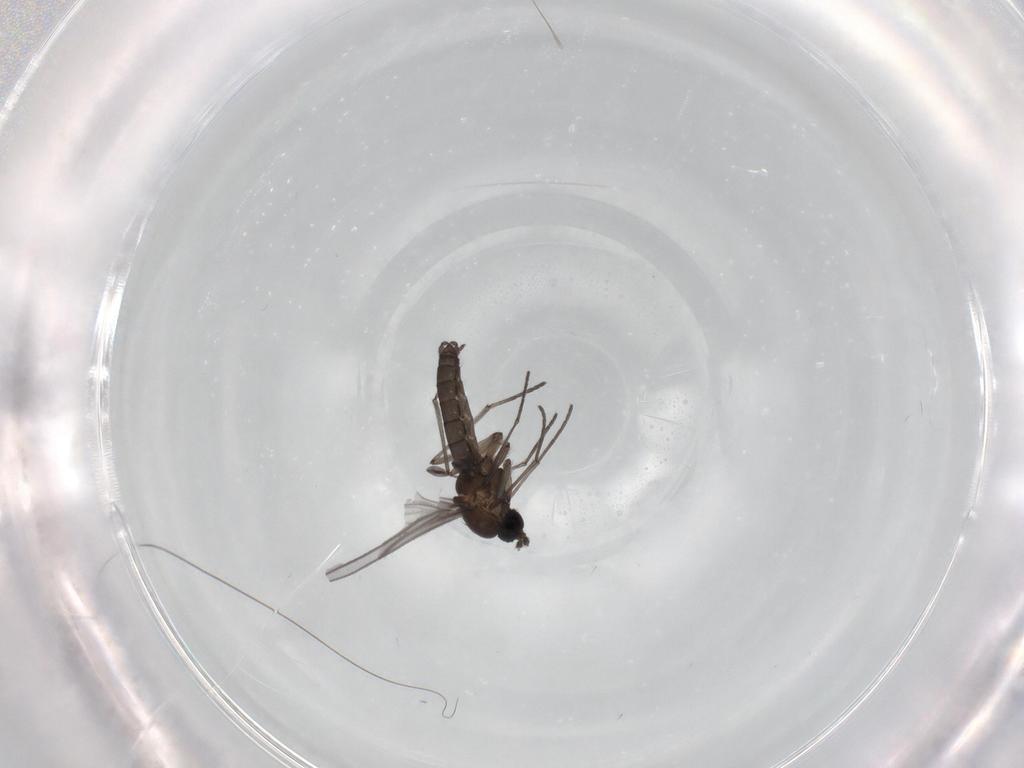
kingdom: Animalia
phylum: Arthropoda
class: Insecta
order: Diptera
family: Sciaridae
